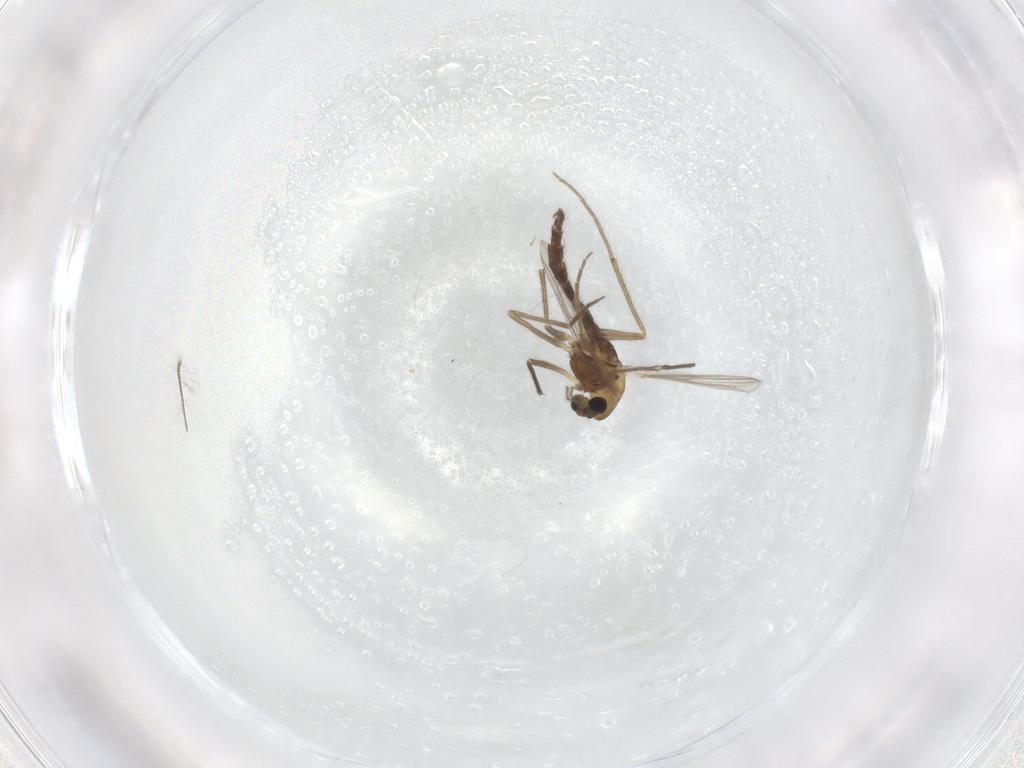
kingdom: Animalia
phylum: Arthropoda
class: Insecta
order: Diptera
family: Chironomidae
